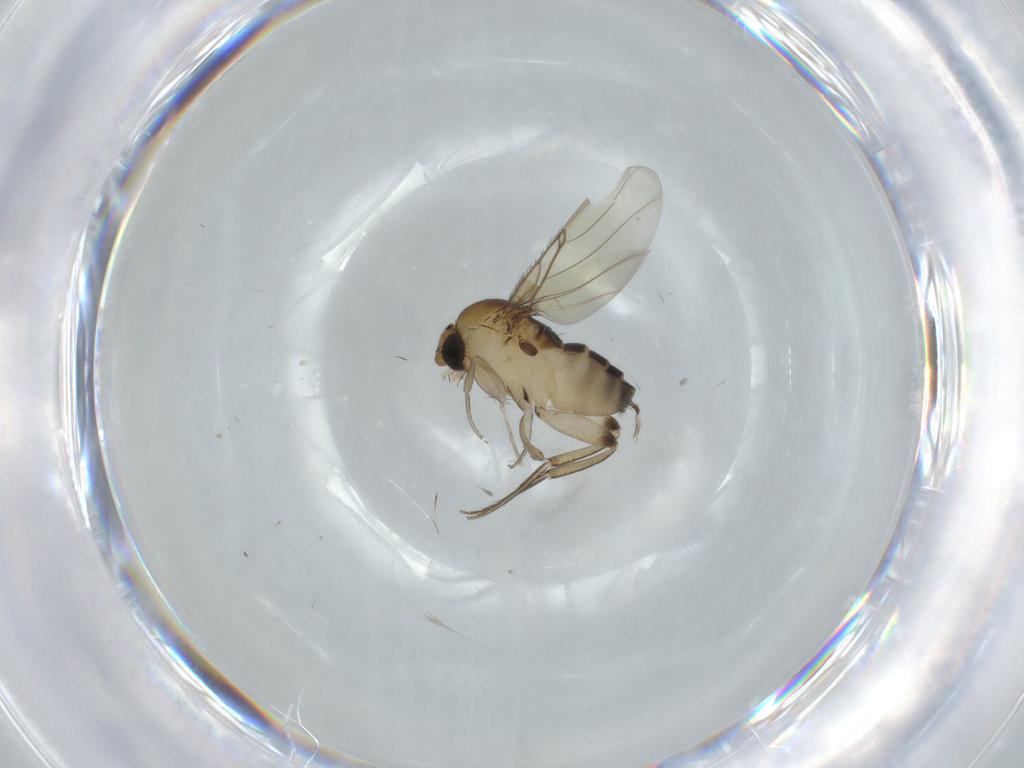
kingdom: Animalia
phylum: Arthropoda
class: Insecta
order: Diptera
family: Phoridae
